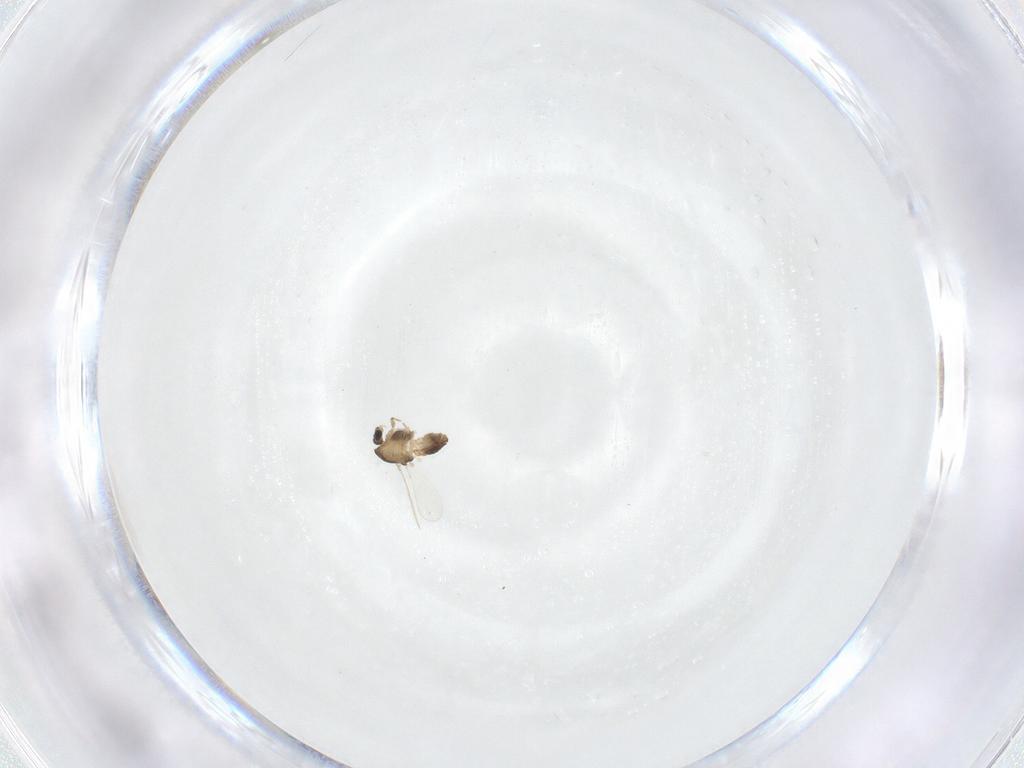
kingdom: Animalia
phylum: Arthropoda
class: Insecta
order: Diptera
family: Chironomidae
